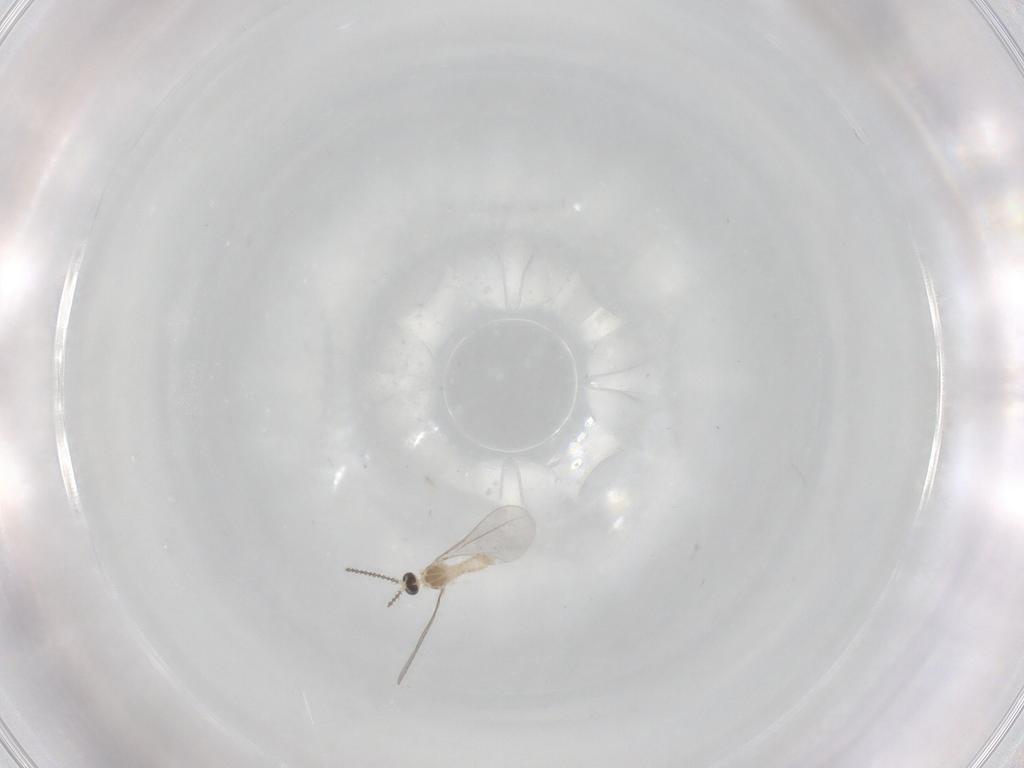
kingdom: Animalia
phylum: Arthropoda
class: Insecta
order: Diptera
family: Cecidomyiidae
